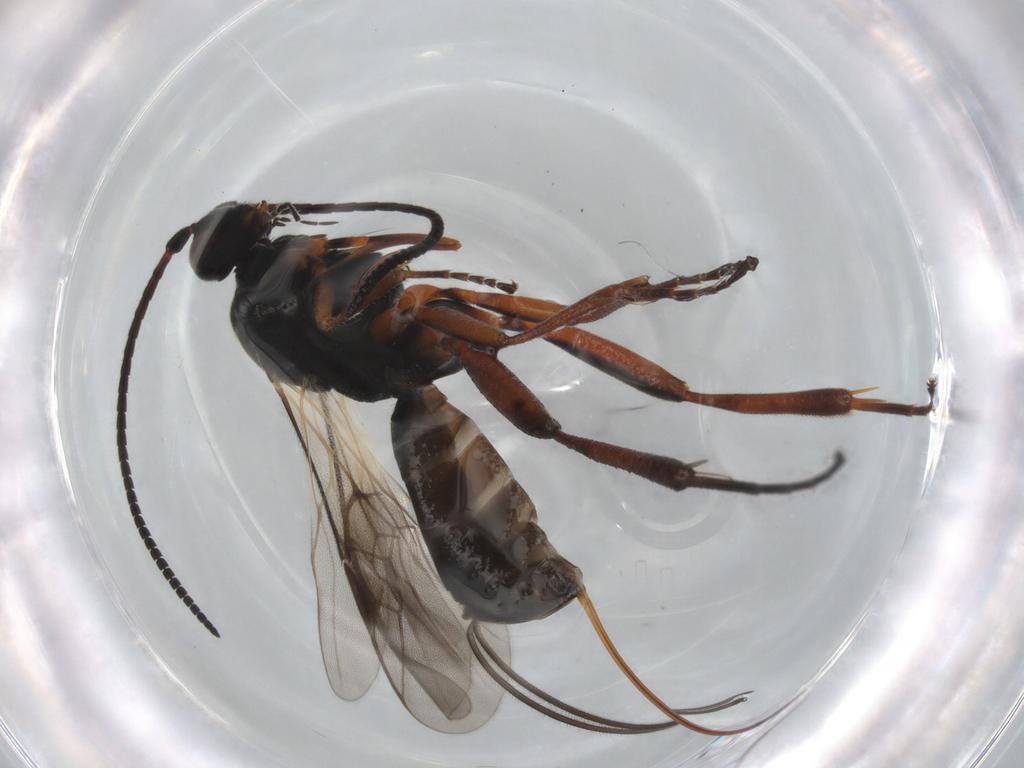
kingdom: Animalia
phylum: Arthropoda
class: Insecta
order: Hymenoptera
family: Braconidae
